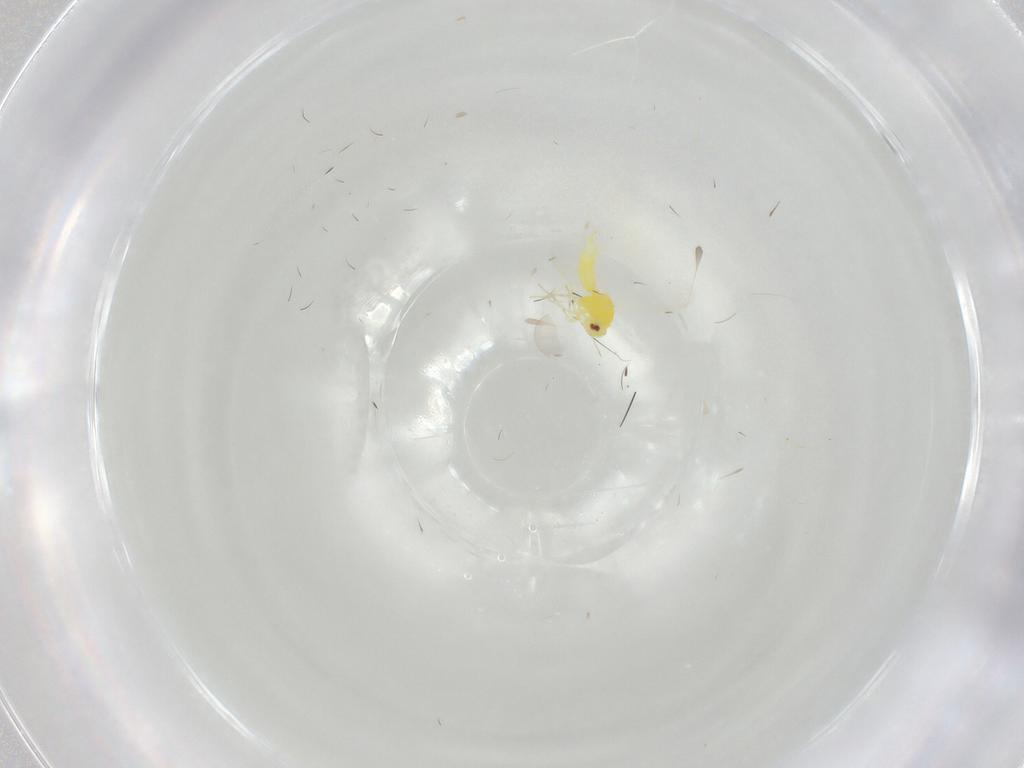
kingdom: Animalia
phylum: Arthropoda
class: Insecta
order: Hemiptera
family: Aleyrodidae
